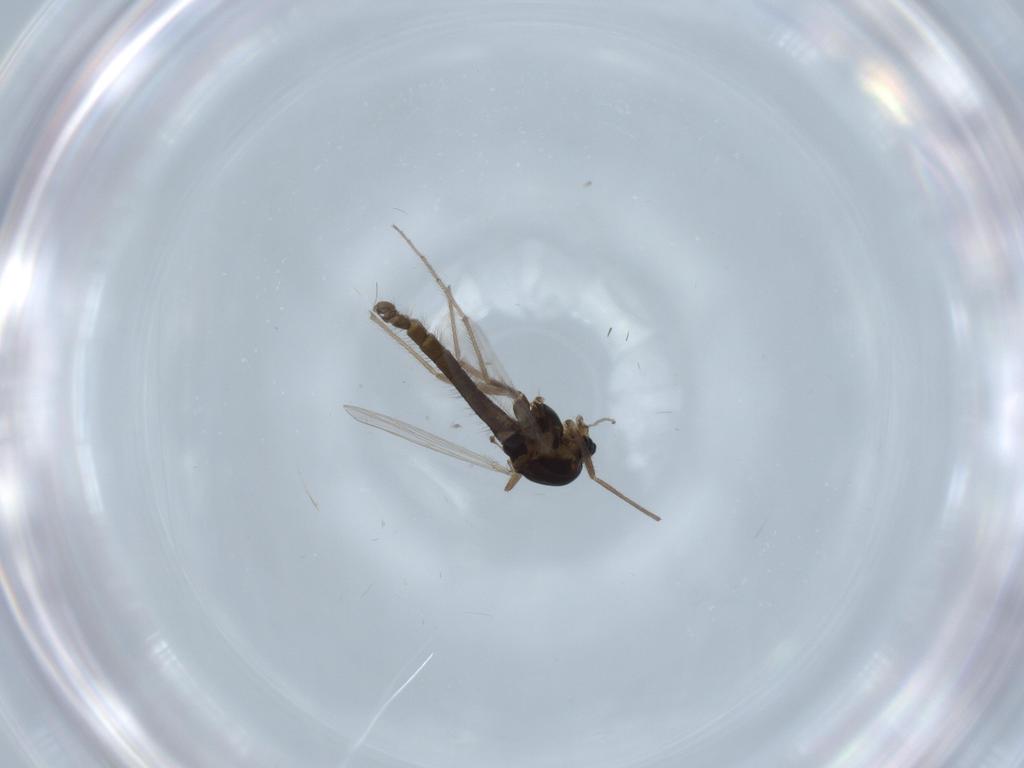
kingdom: Animalia
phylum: Arthropoda
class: Insecta
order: Diptera
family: Chironomidae
